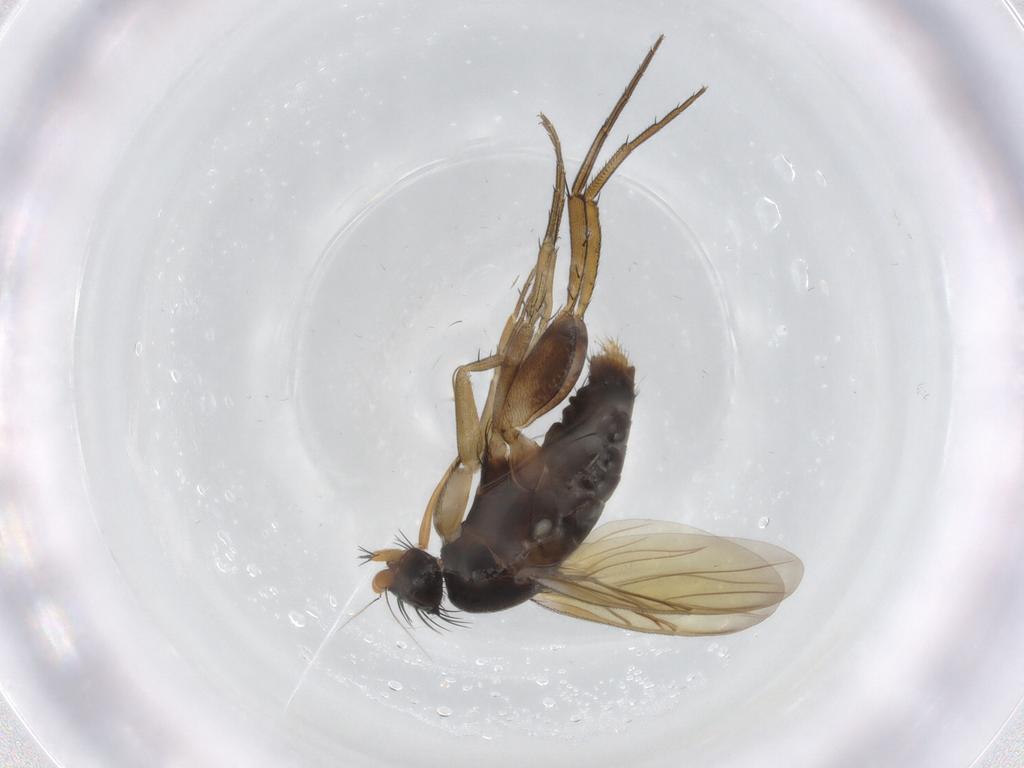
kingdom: Animalia
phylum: Arthropoda
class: Insecta
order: Diptera
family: Phoridae
